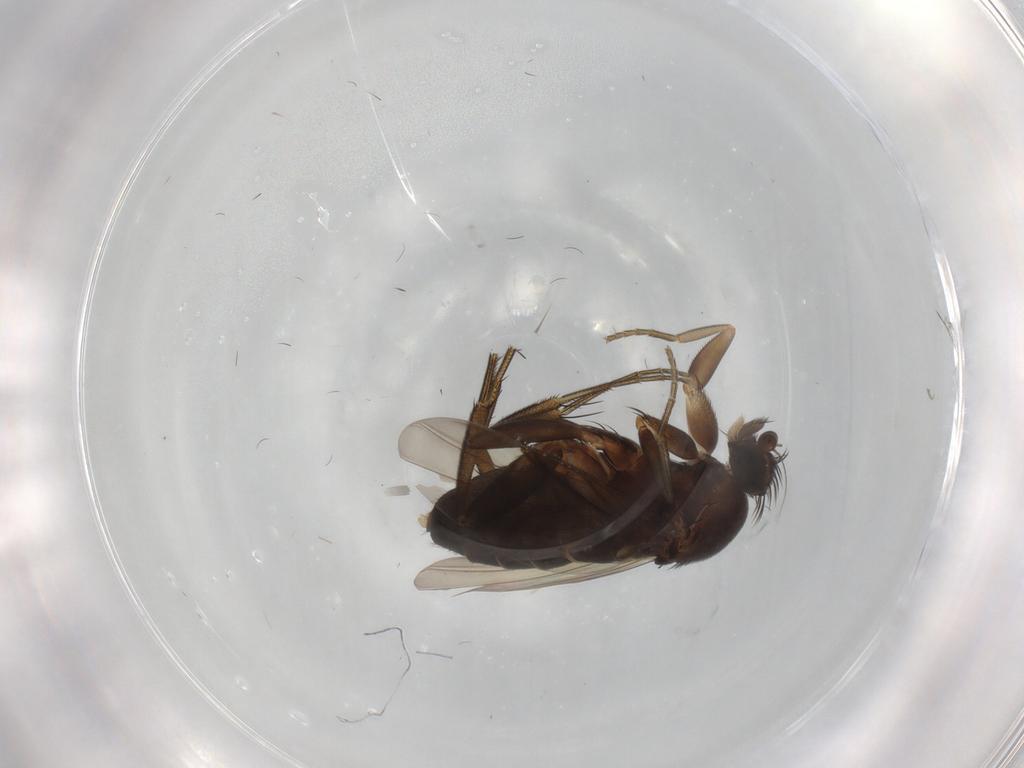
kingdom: Animalia
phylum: Arthropoda
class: Insecta
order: Diptera
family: Phoridae
